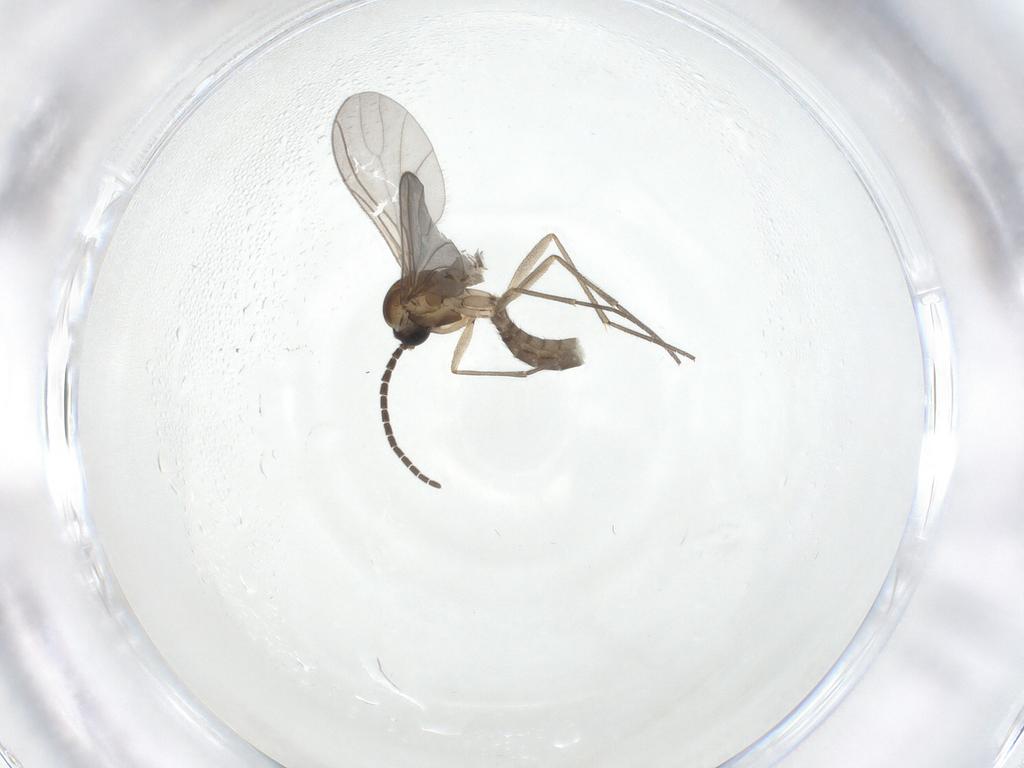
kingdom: Animalia
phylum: Arthropoda
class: Insecta
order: Diptera
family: Sciaridae
